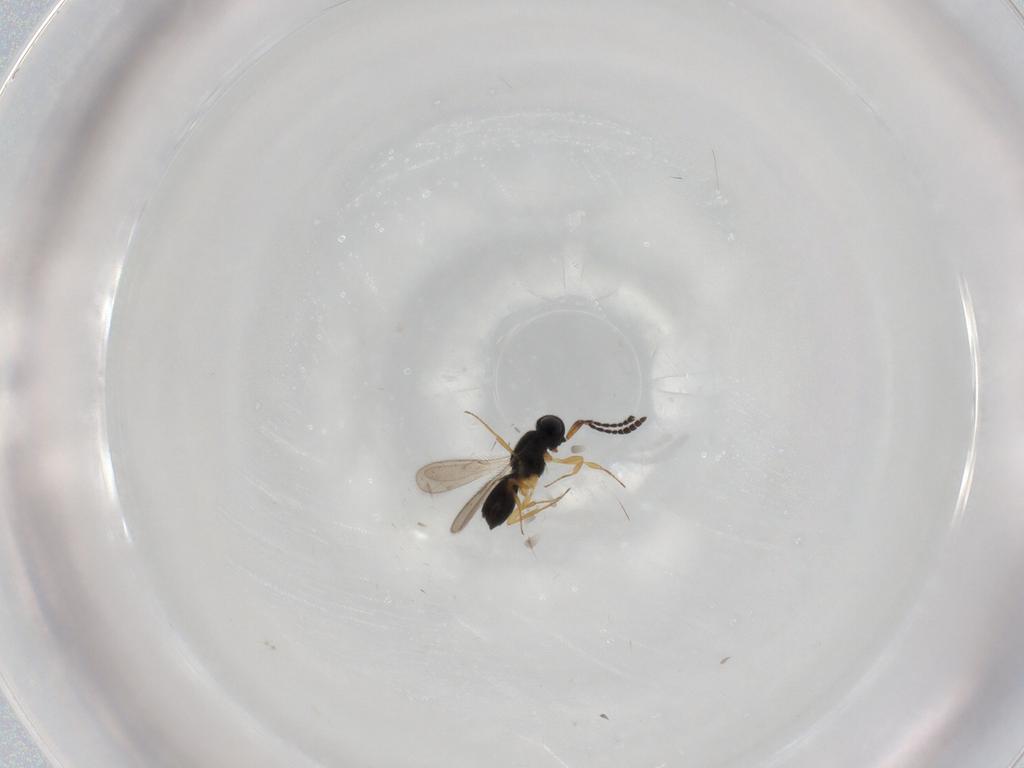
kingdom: Animalia
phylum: Arthropoda
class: Insecta
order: Hymenoptera
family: Scelionidae
